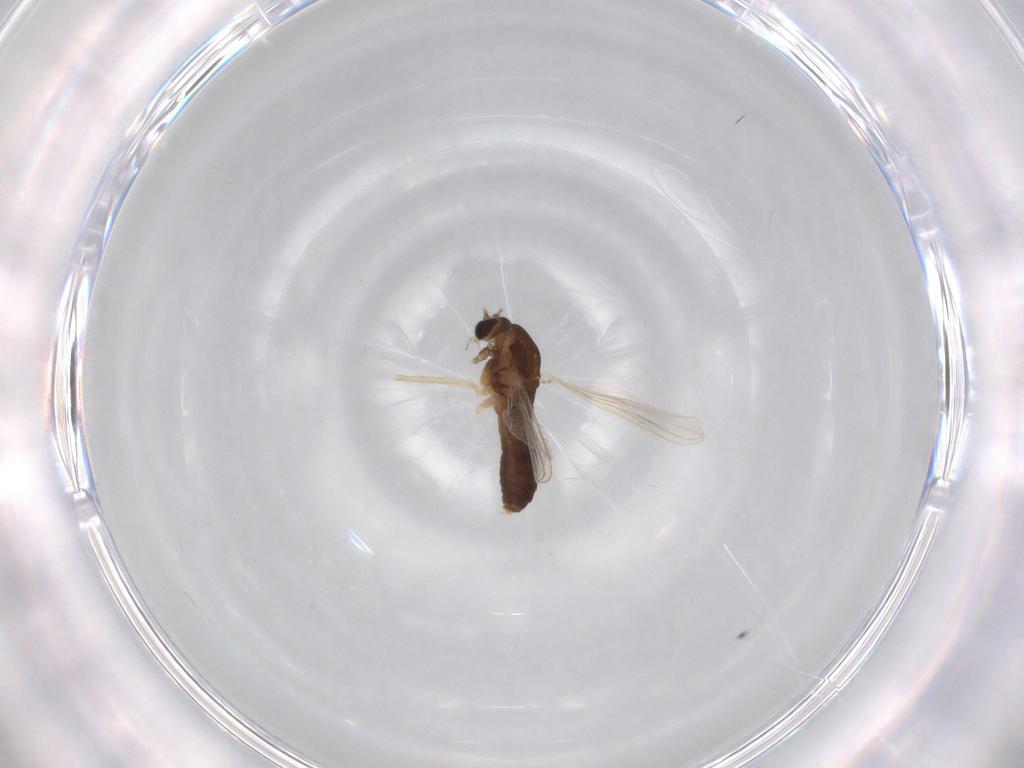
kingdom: Animalia
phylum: Arthropoda
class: Insecta
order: Diptera
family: Chironomidae
